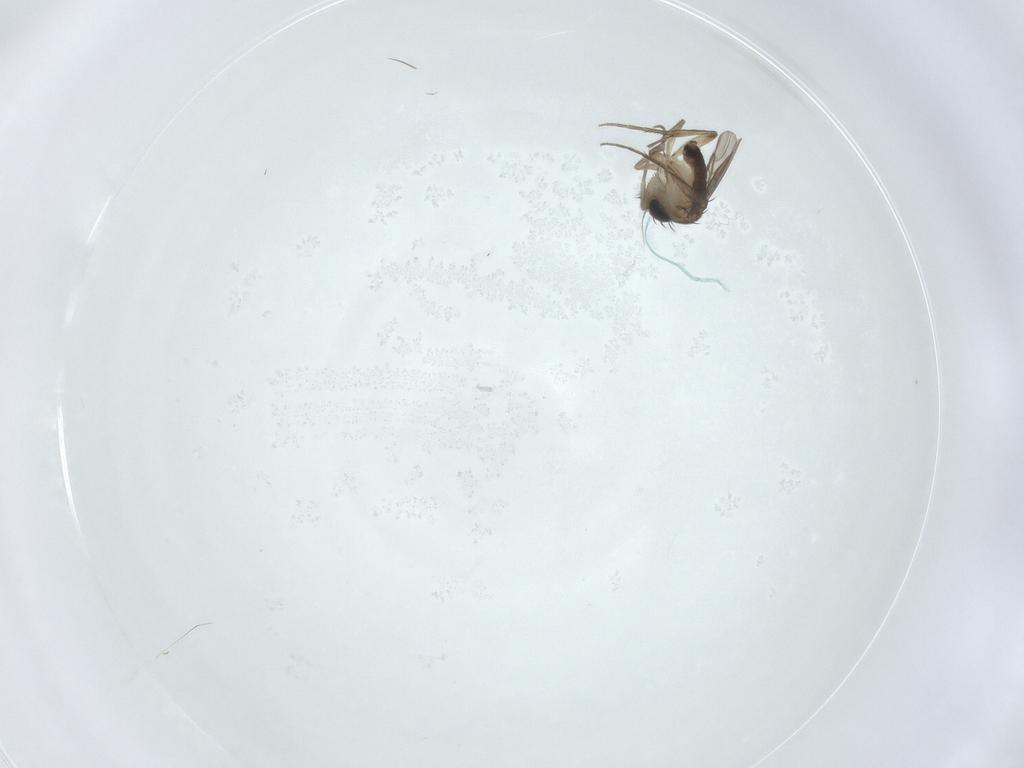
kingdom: Animalia
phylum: Arthropoda
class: Insecta
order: Diptera
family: Phoridae
